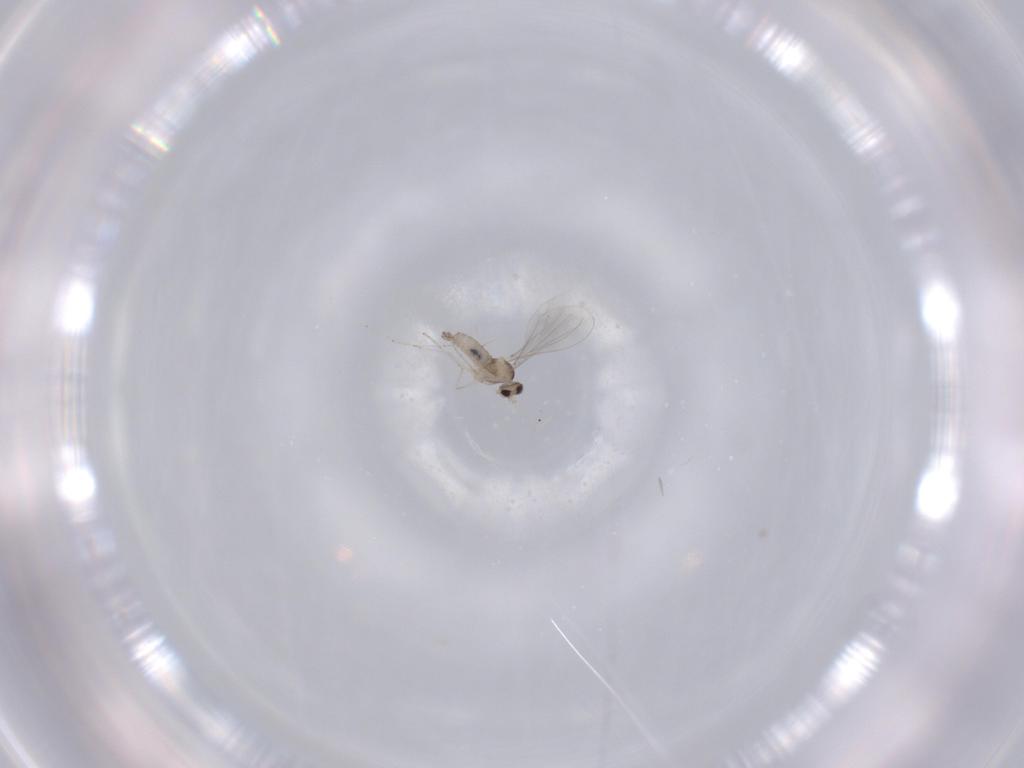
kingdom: Animalia
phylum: Arthropoda
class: Insecta
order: Diptera
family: Cecidomyiidae
